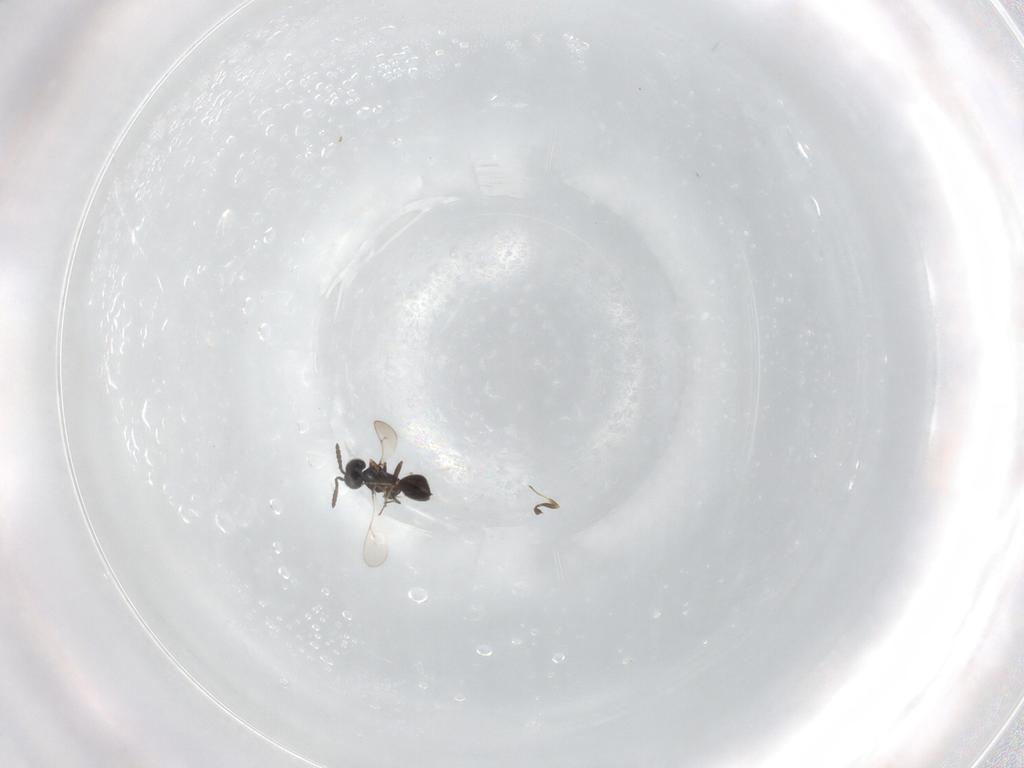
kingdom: Animalia
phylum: Arthropoda
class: Insecta
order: Hymenoptera
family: Scelionidae
